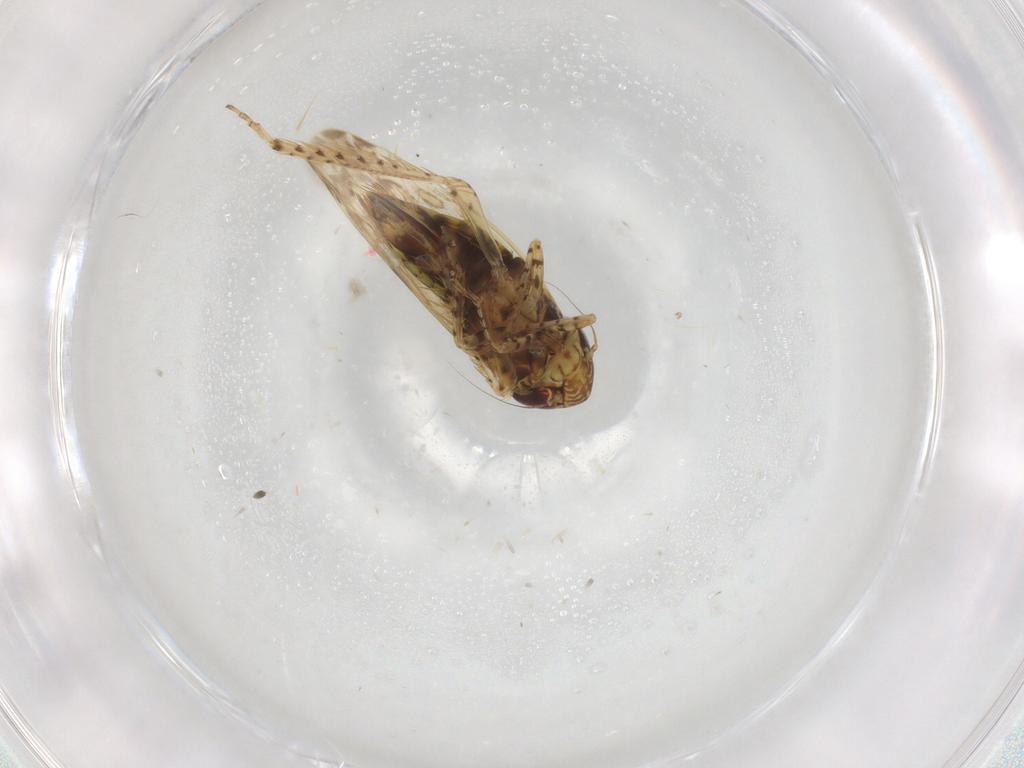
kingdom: Animalia
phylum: Arthropoda
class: Insecta
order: Hemiptera
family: Cicadellidae
